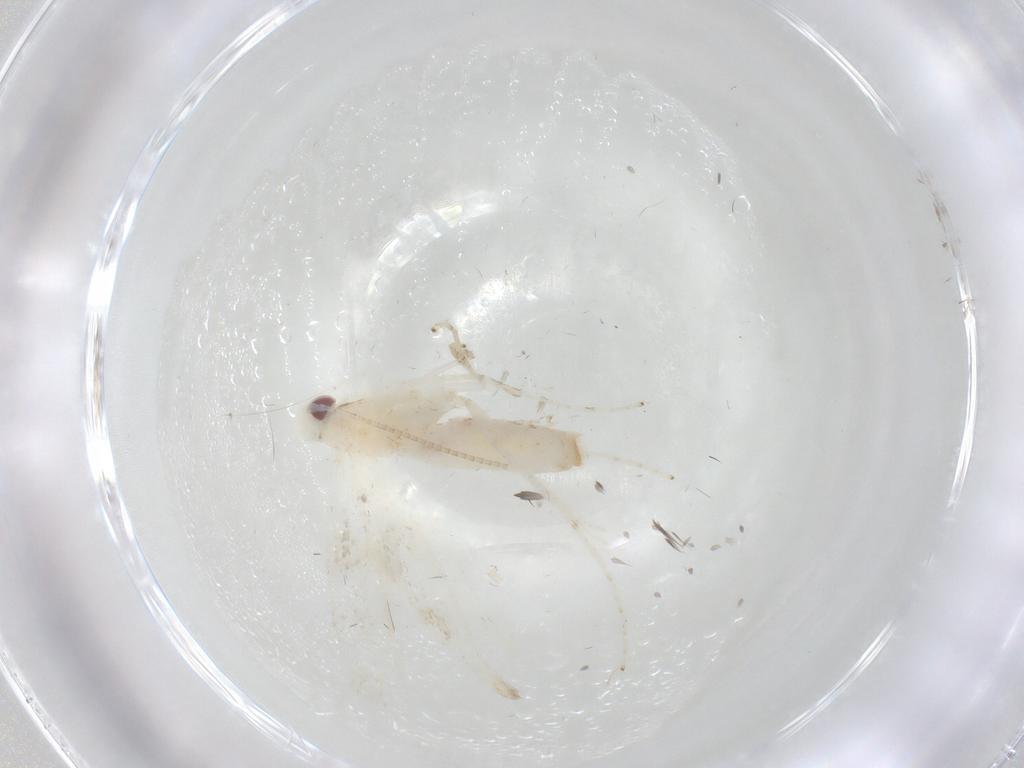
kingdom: Animalia
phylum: Arthropoda
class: Insecta
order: Lepidoptera
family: Gracillariidae
